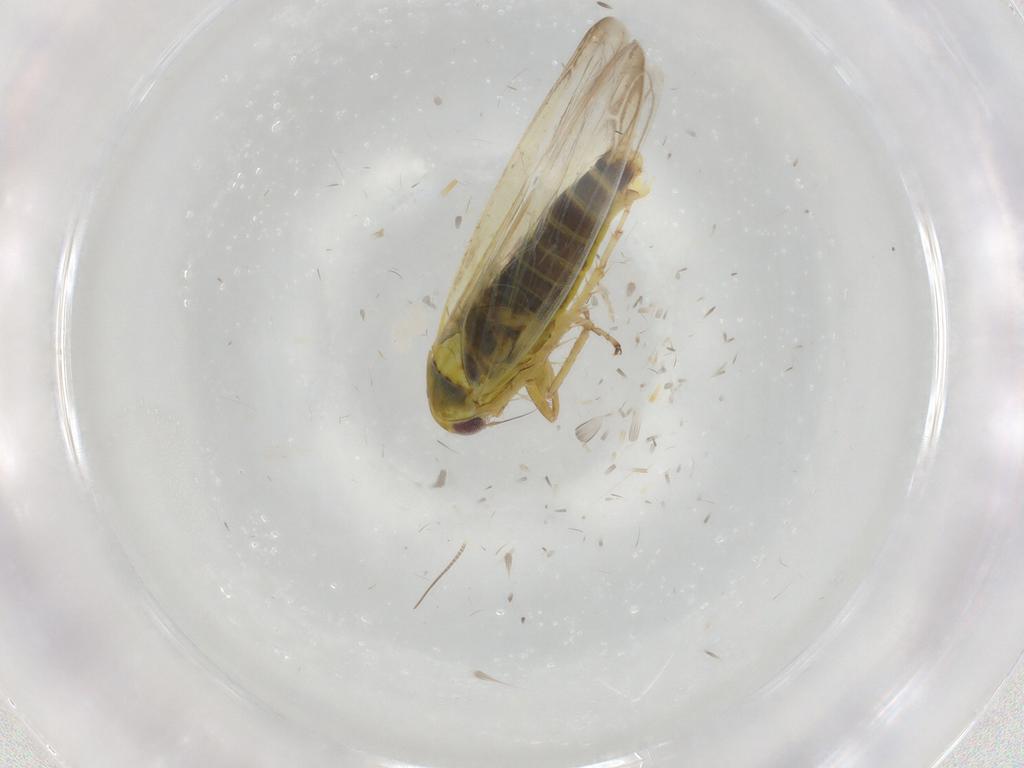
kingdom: Animalia
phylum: Arthropoda
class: Insecta
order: Hemiptera
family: Cicadellidae
